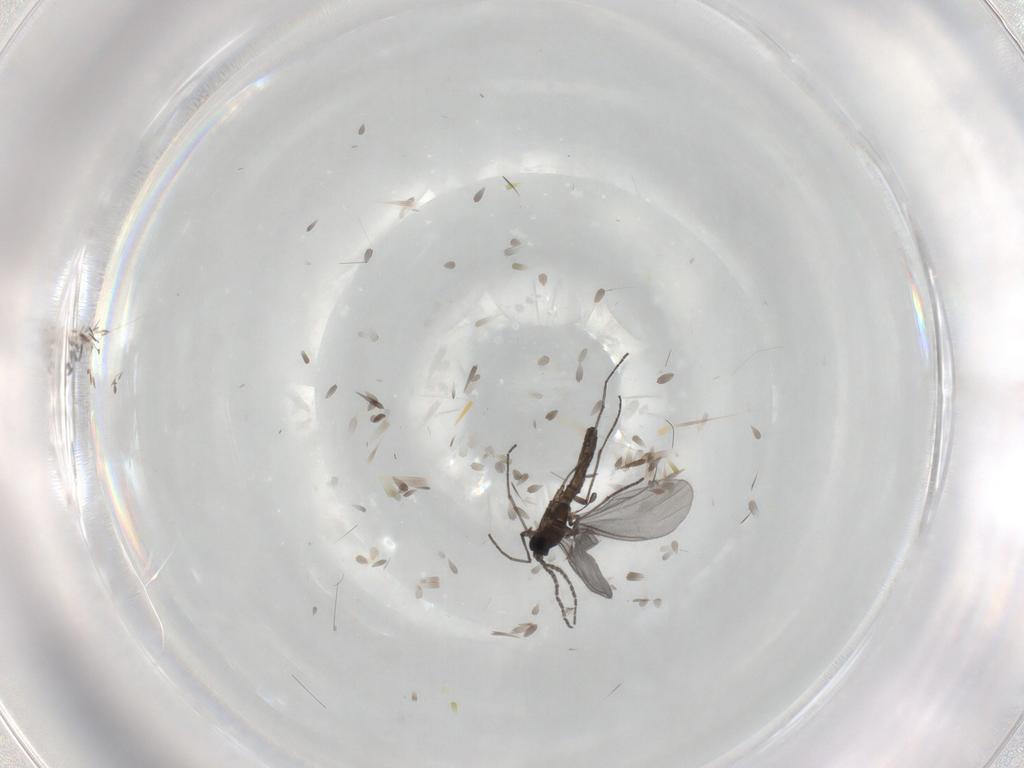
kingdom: Animalia
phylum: Arthropoda
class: Insecta
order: Diptera
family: Sciaridae
